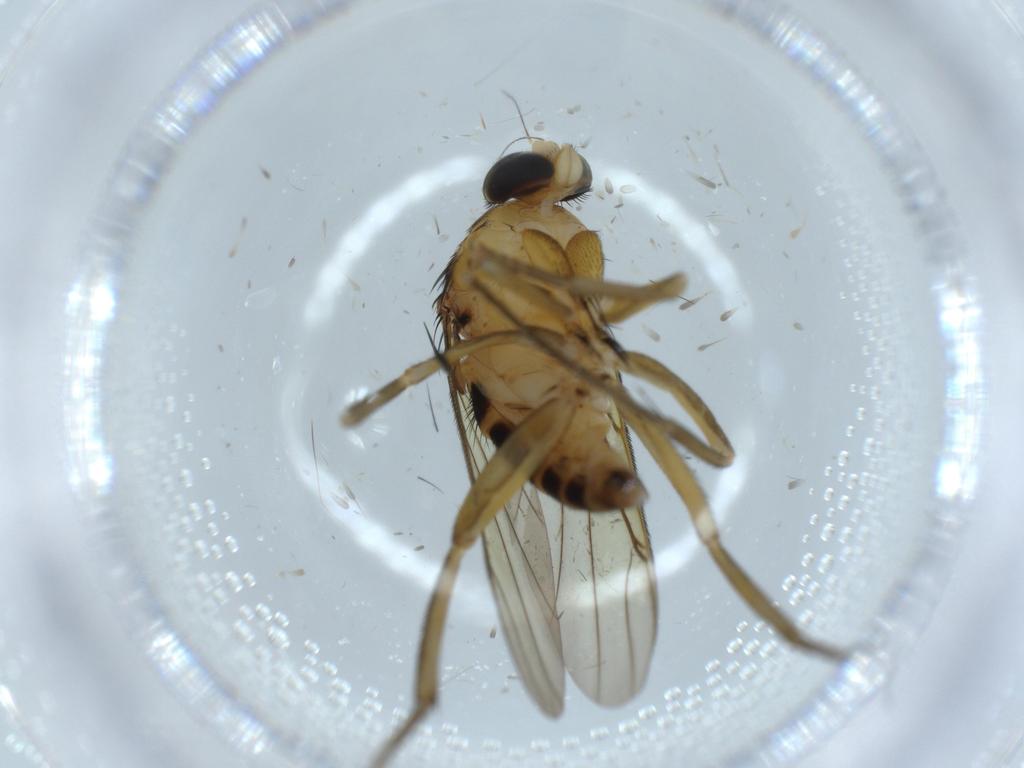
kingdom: Animalia
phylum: Arthropoda
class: Insecta
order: Diptera
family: Phoridae
